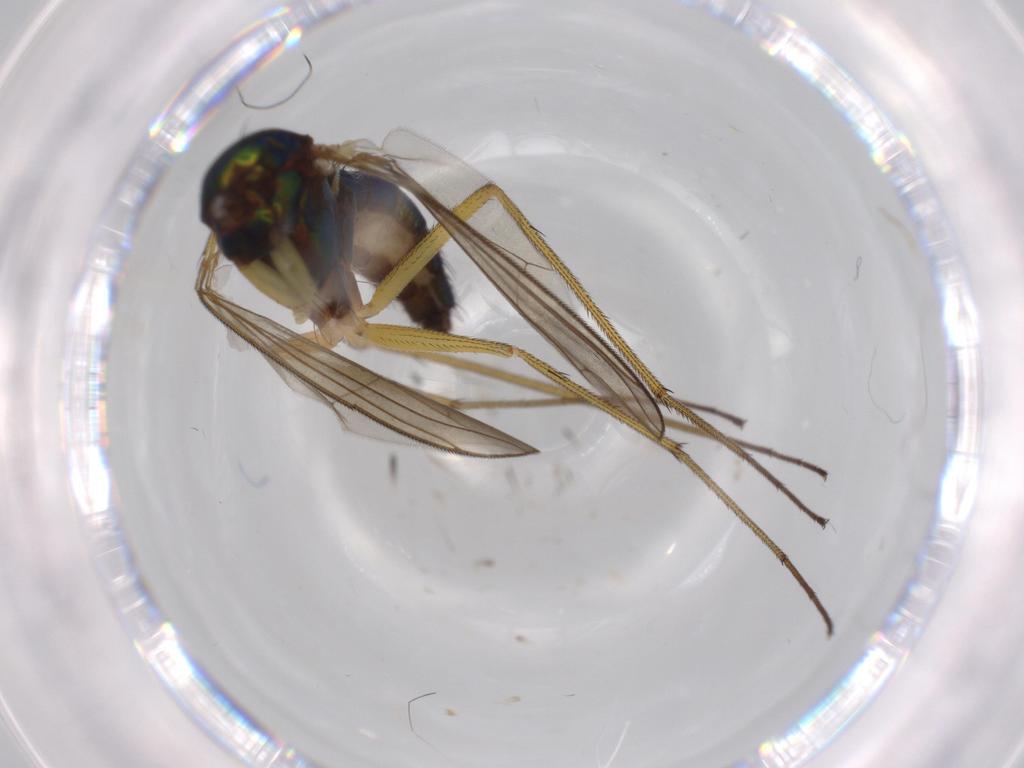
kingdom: Animalia
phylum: Arthropoda
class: Insecta
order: Diptera
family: Dolichopodidae
